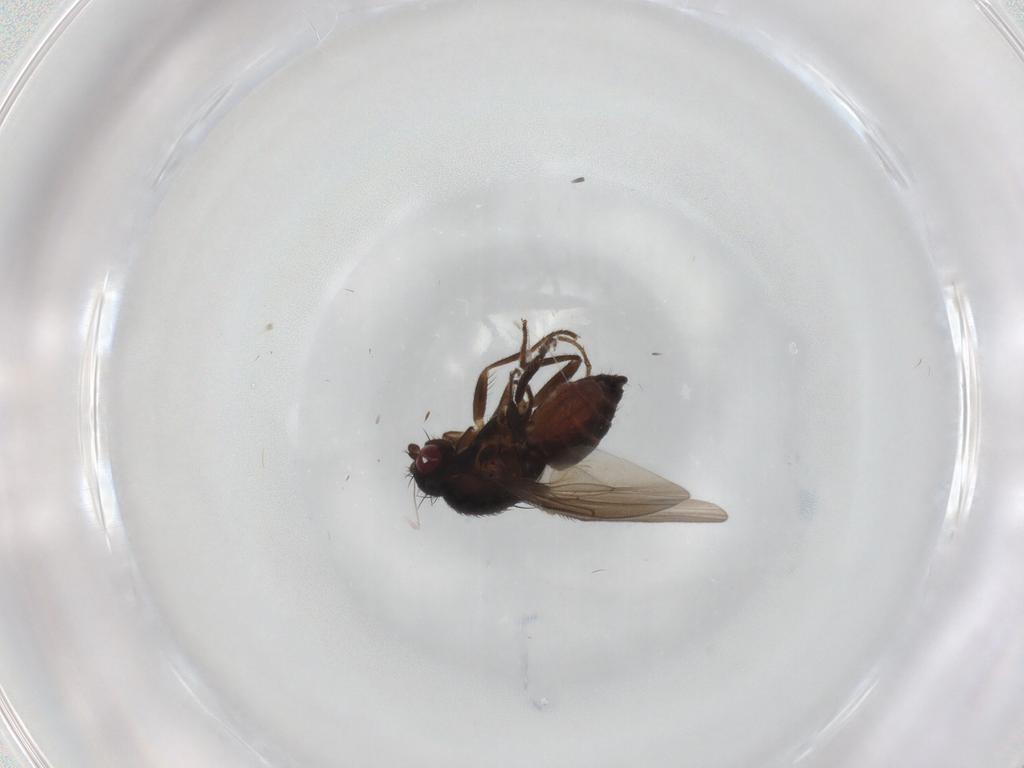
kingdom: Animalia
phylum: Arthropoda
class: Insecta
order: Diptera
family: Sphaeroceridae
